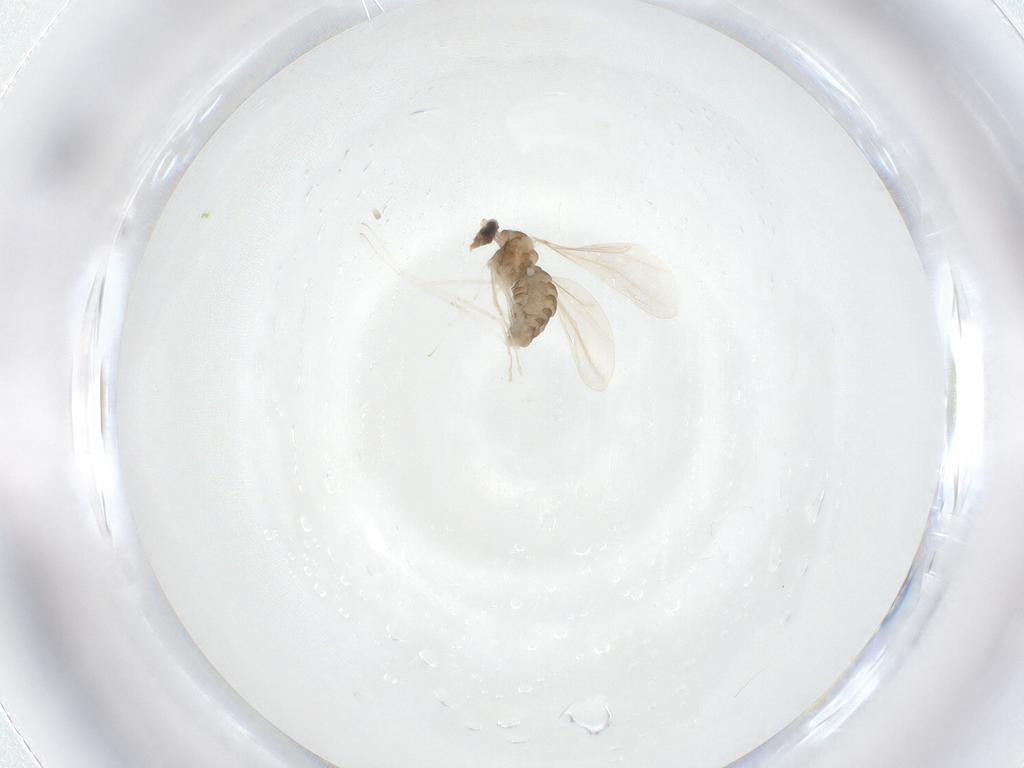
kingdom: Animalia
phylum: Arthropoda
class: Insecta
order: Diptera
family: Cecidomyiidae
